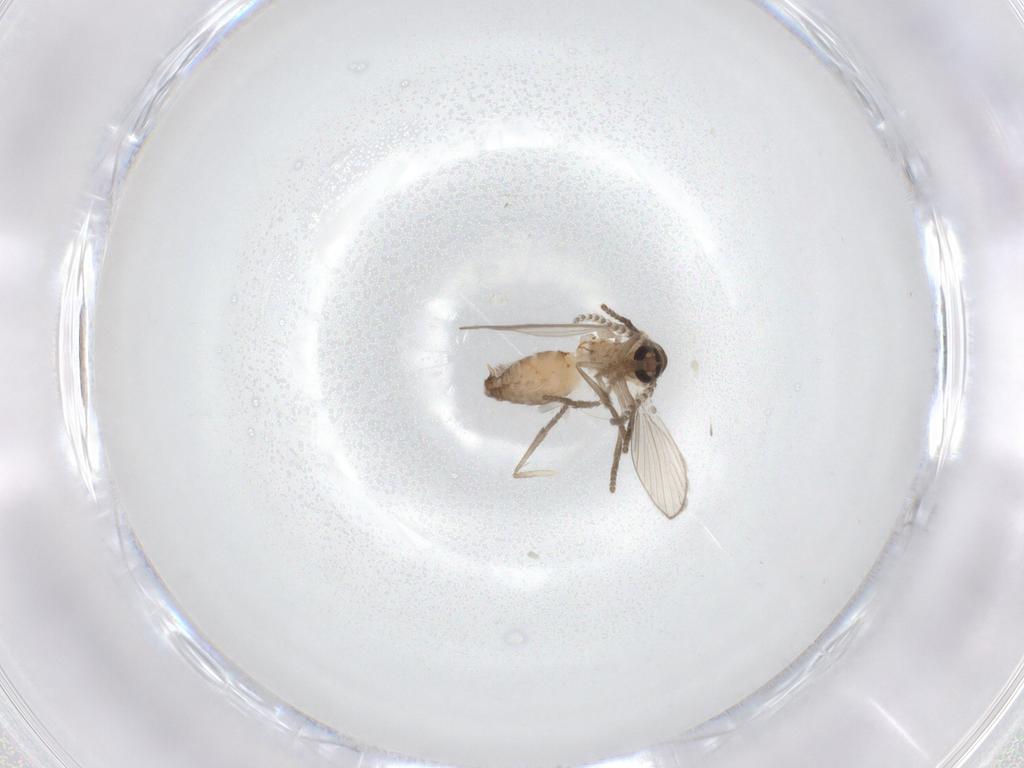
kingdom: Animalia
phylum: Arthropoda
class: Insecta
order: Diptera
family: Psychodidae
